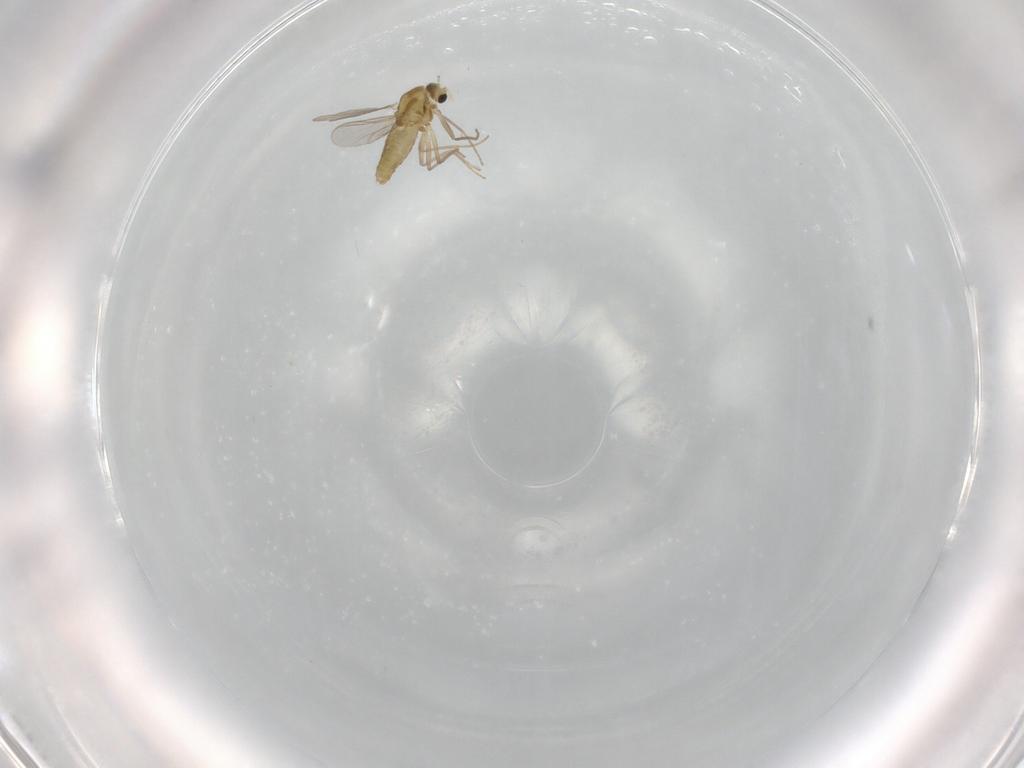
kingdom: Animalia
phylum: Arthropoda
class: Insecta
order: Diptera
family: Chironomidae
